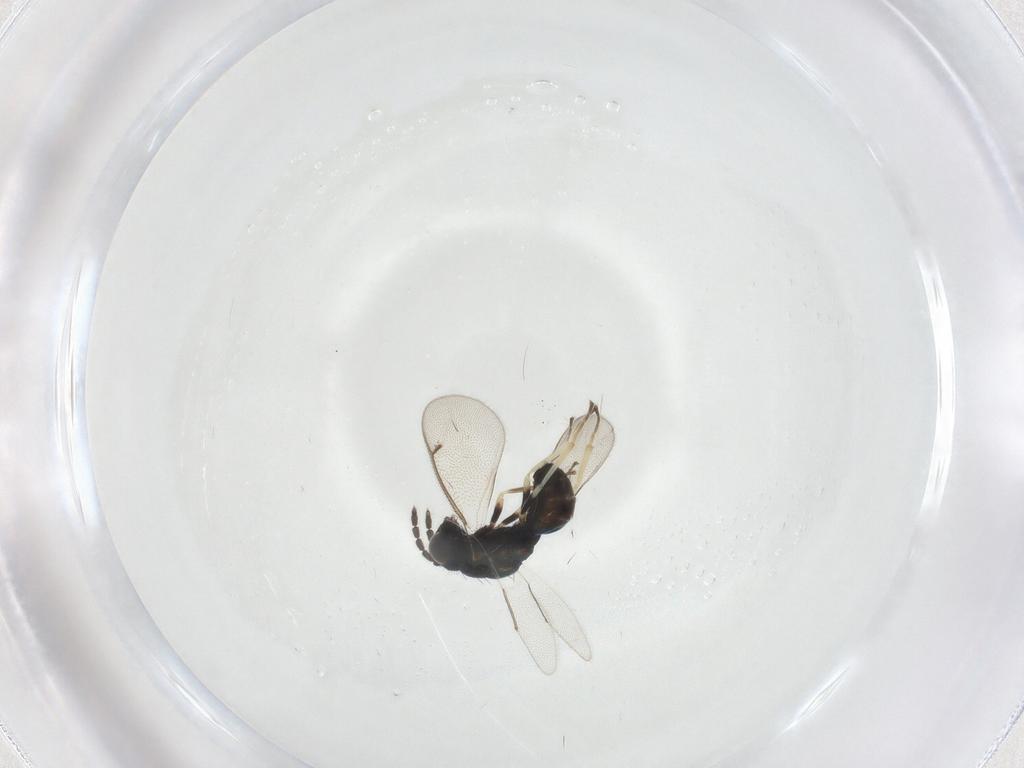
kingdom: Animalia
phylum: Arthropoda
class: Insecta
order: Hymenoptera
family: Eulophidae
